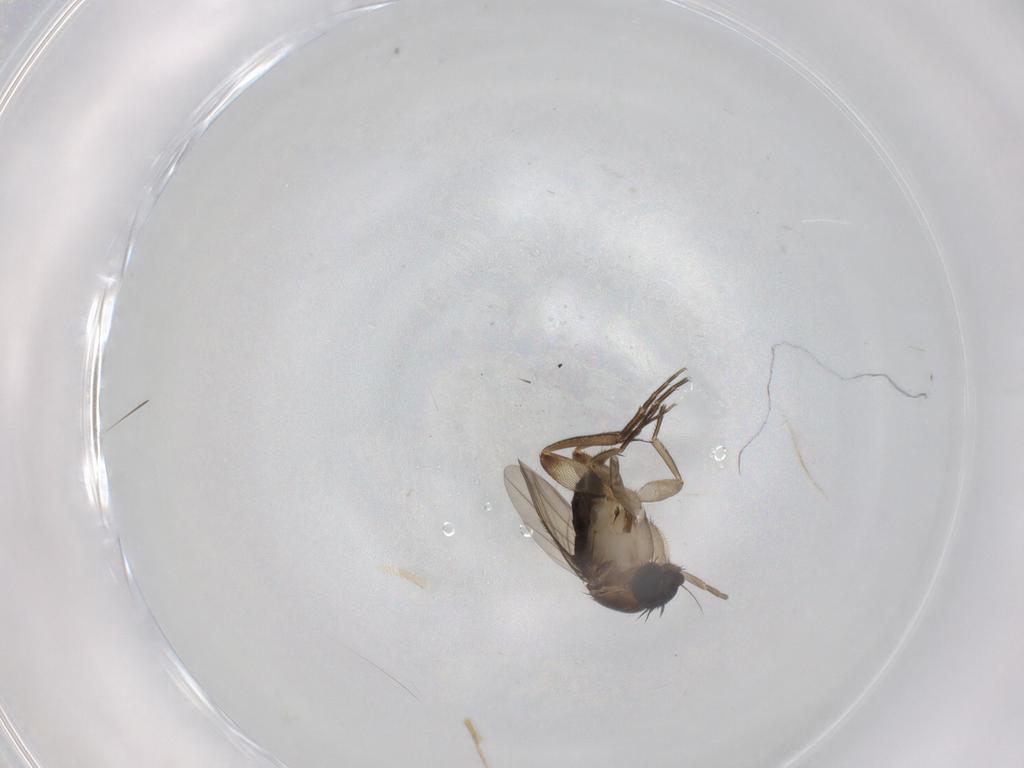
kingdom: Animalia
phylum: Arthropoda
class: Insecta
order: Diptera
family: Phoridae
